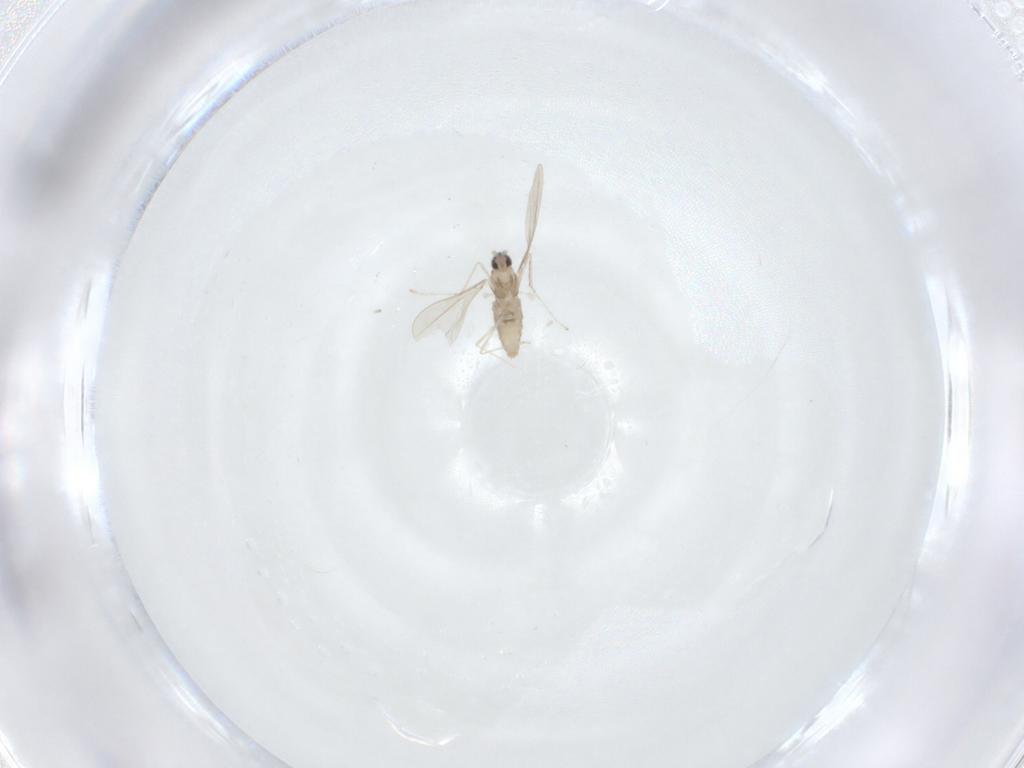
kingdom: Animalia
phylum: Arthropoda
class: Insecta
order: Diptera
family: Cecidomyiidae
